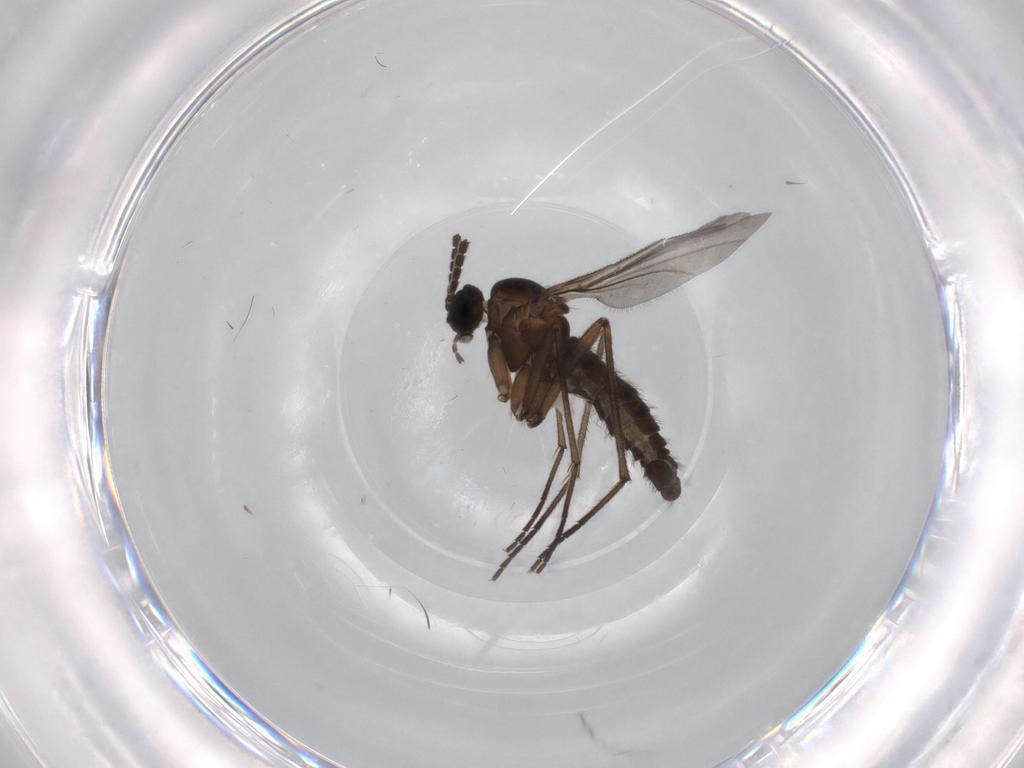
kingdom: Animalia
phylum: Arthropoda
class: Insecta
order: Diptera
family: Sciaridae
